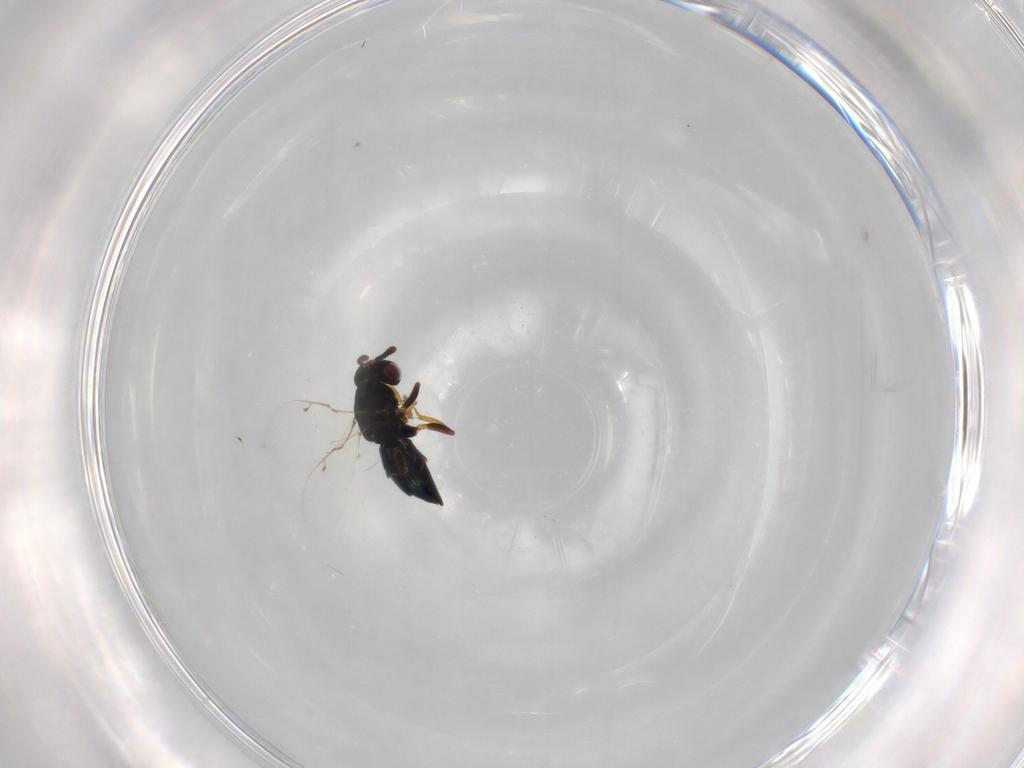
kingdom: Animalia
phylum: Arthropoda
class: Insecta
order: Hymenoptera
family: Pteromalidae
